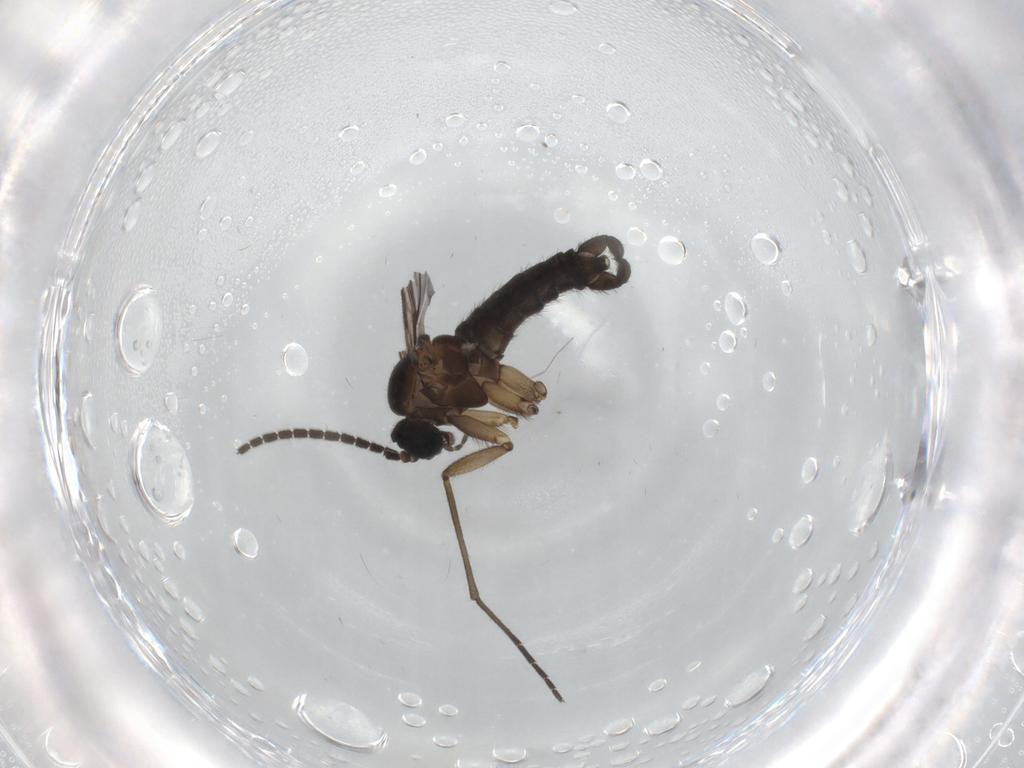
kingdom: Animalia
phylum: Arthropoda
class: Insecta
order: Diptera
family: Sciaridae
